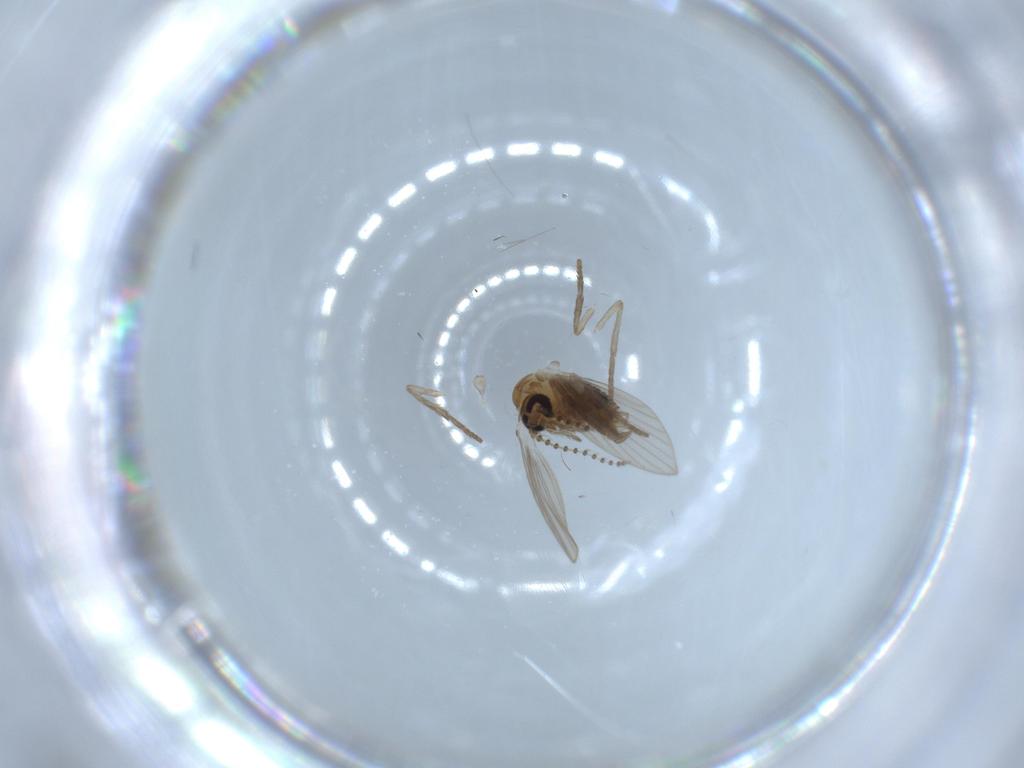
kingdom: Animalia
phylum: Arthropoda
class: Insecta
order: Diptera
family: Psychodidae
